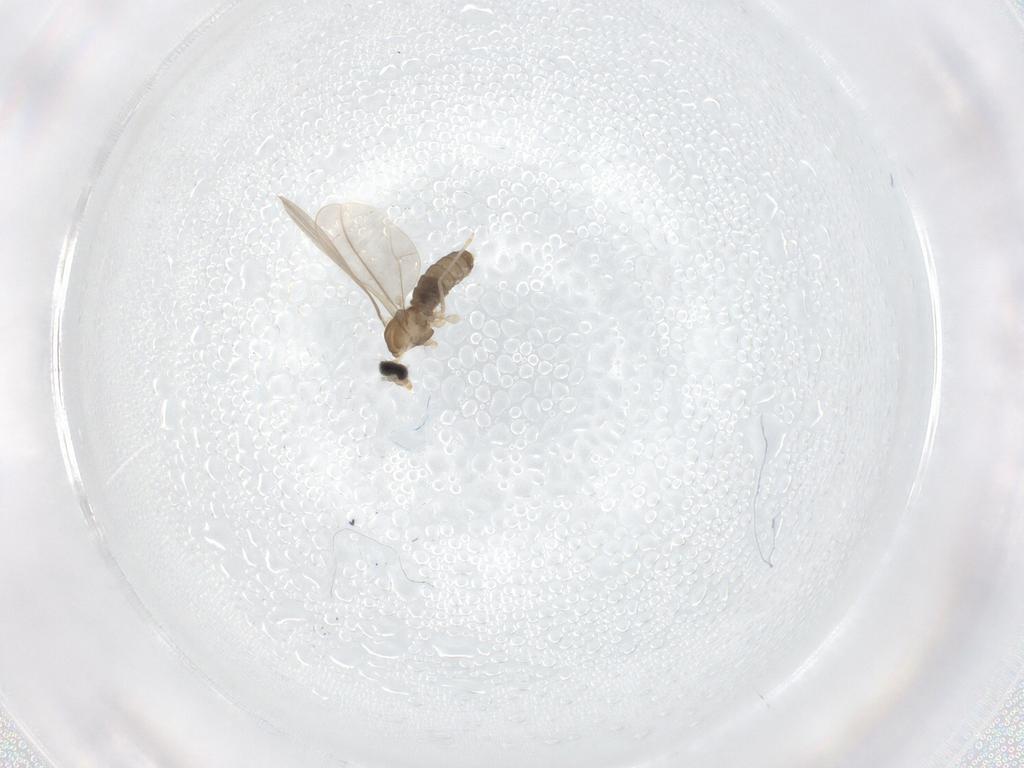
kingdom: Animalia
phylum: Arthropoda
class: Insecta
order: Diptera
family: Cecidomyiidae
